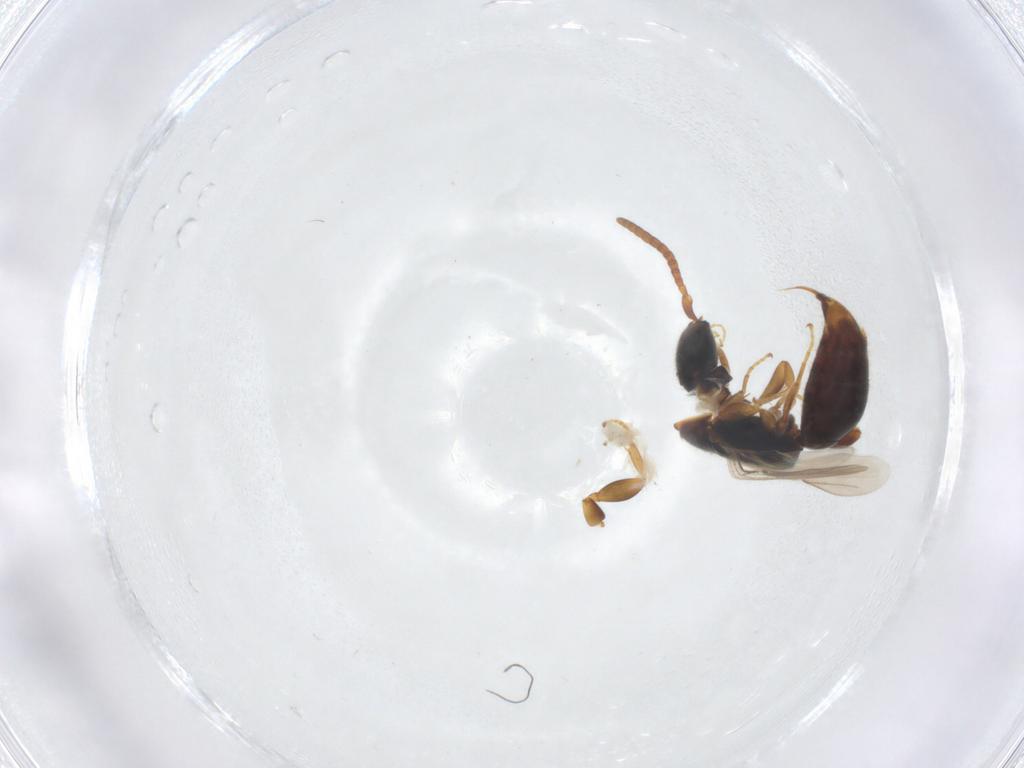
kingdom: Animalia
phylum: Arthropoda
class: Insecta
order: Hymenoptera
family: Bethylidae
